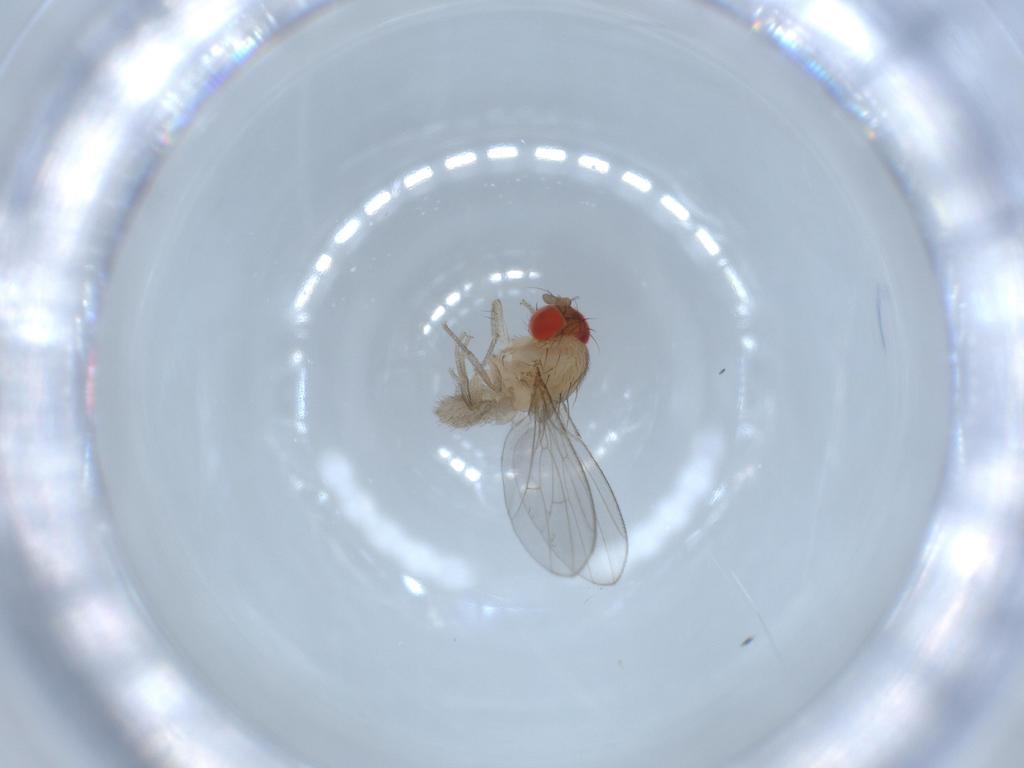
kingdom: Animalia
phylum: Arthropoda
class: Insecta
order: Diptera
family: Drosophilidae
